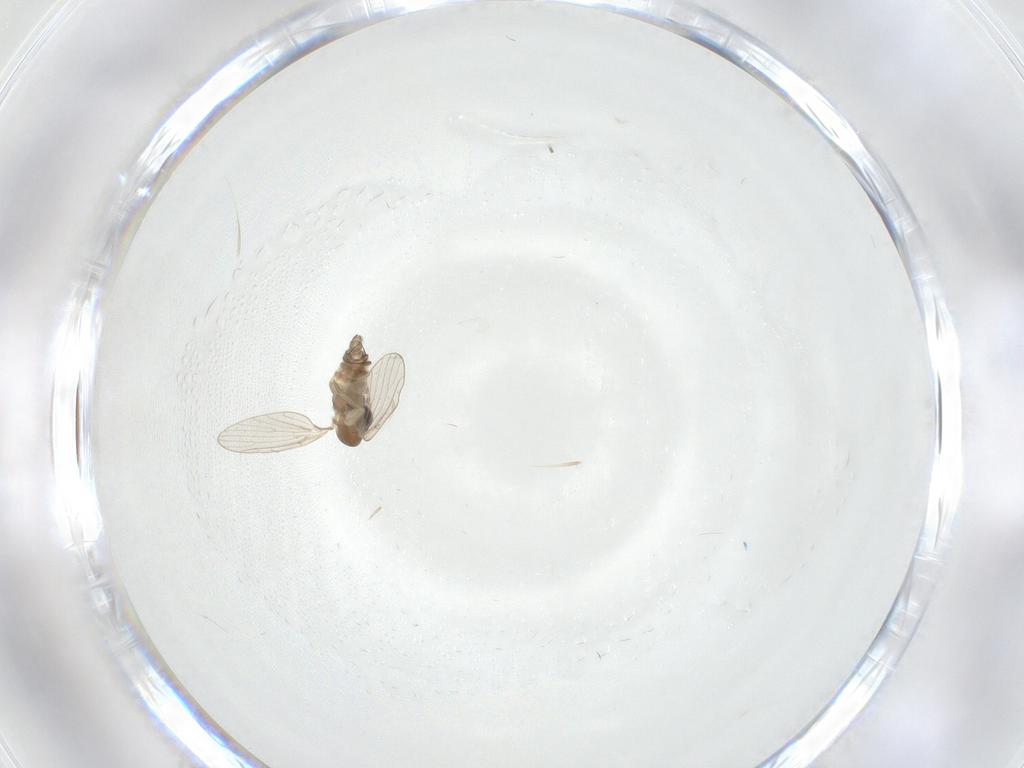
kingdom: Animalia
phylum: Arthropoda
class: Insecta
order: Diptera
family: Phoridae
